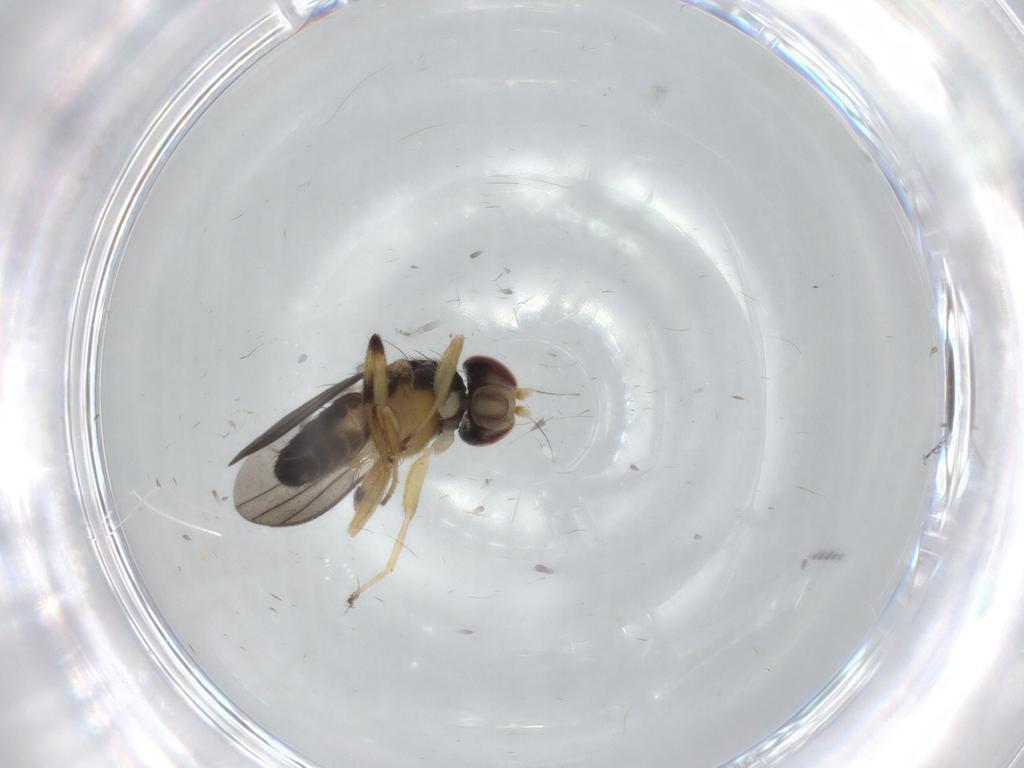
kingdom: Animalia
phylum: Arthropoda
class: Insecta
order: Diptera
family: Clusiidae
